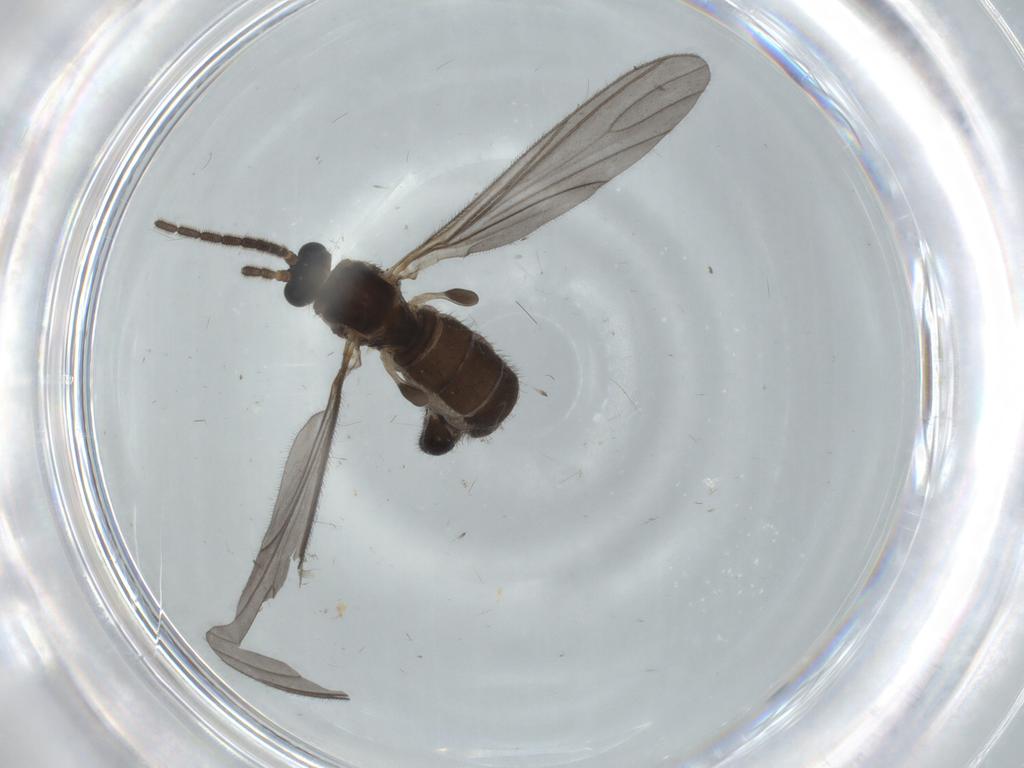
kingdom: Animalia
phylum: Arthropoda
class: Insecta
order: Diptera
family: Sciaridae
